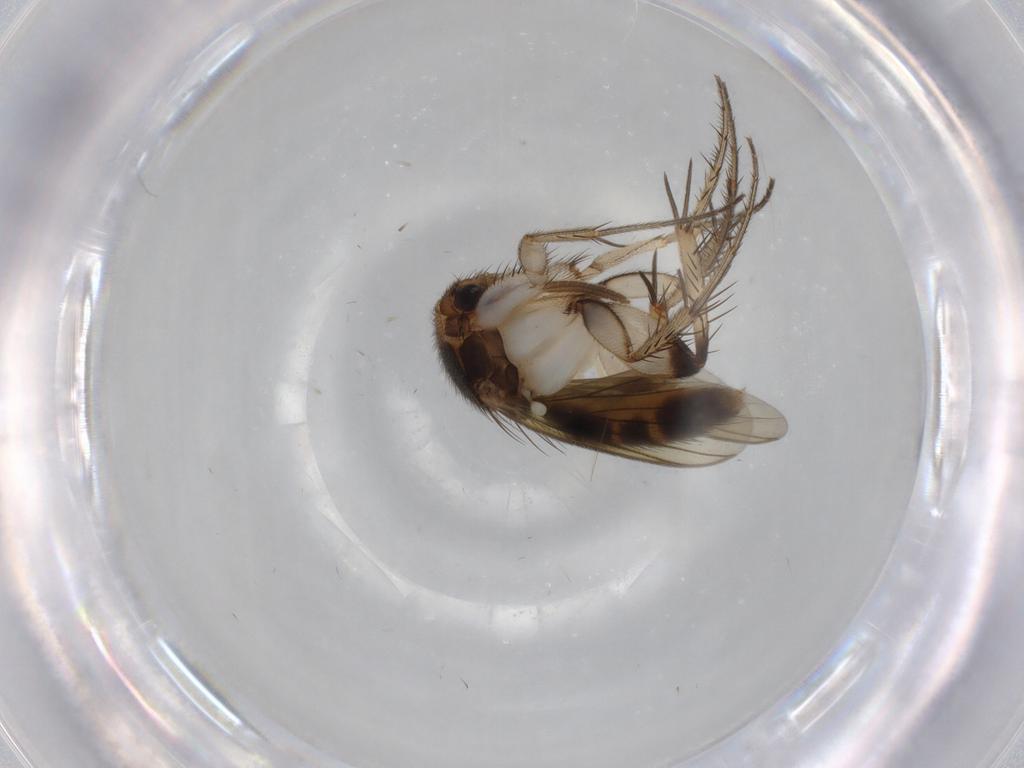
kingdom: Animalia
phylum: Arthropoda
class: Insecta
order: Diptera
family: Mycetophilidae
